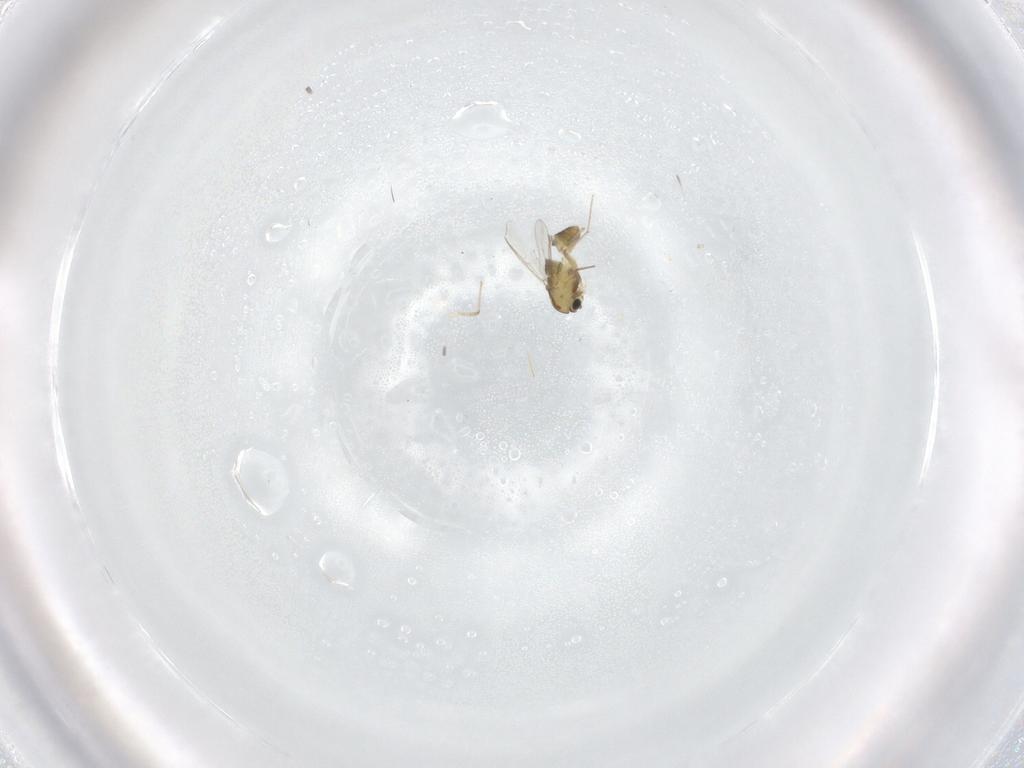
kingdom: Animalia
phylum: Arthropoda
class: Insecta
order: Diptera
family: Chironomidae
